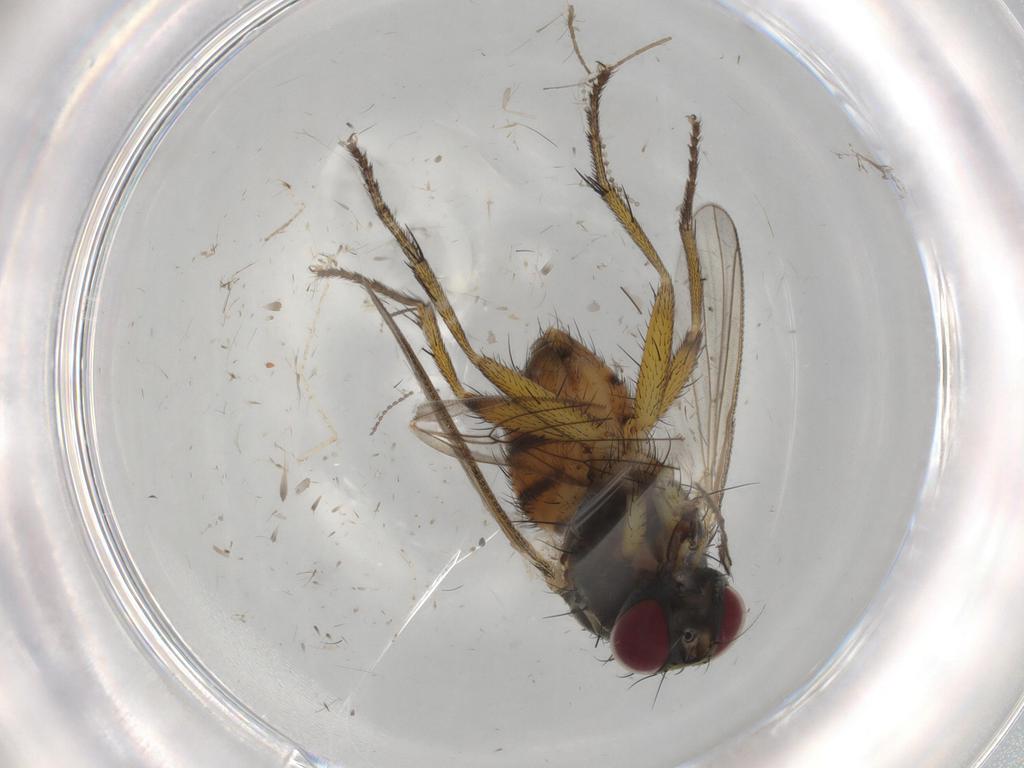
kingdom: Animalia
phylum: Arthropoda
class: Insecta
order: Diptera
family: Muscidae
